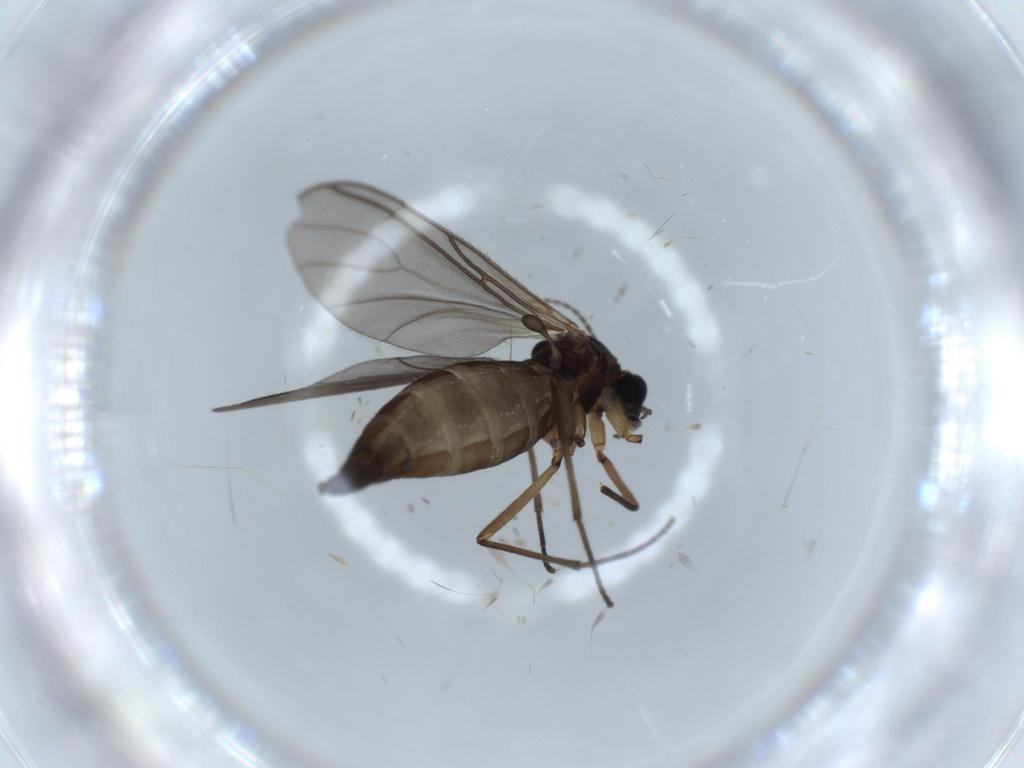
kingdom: Animalia
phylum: Arthropoda
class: Insecta
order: Diptera
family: Sciaridae
